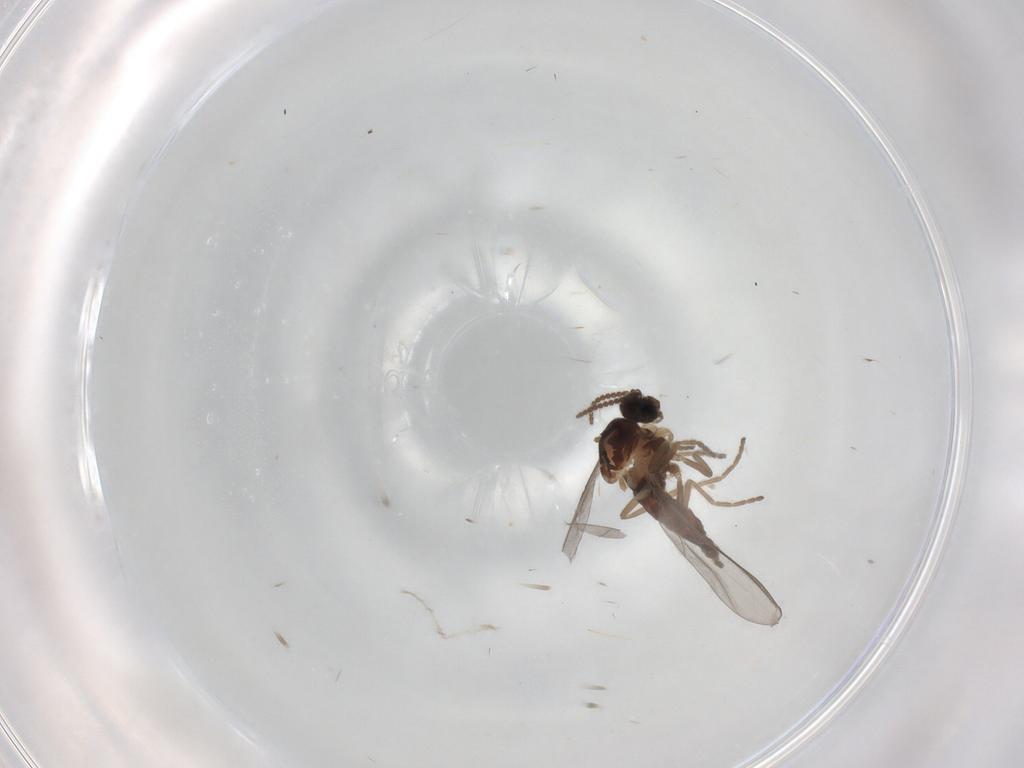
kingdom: Animalia
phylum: Arthropoda
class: Insecta
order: Diptera
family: Cecidomyiidae
